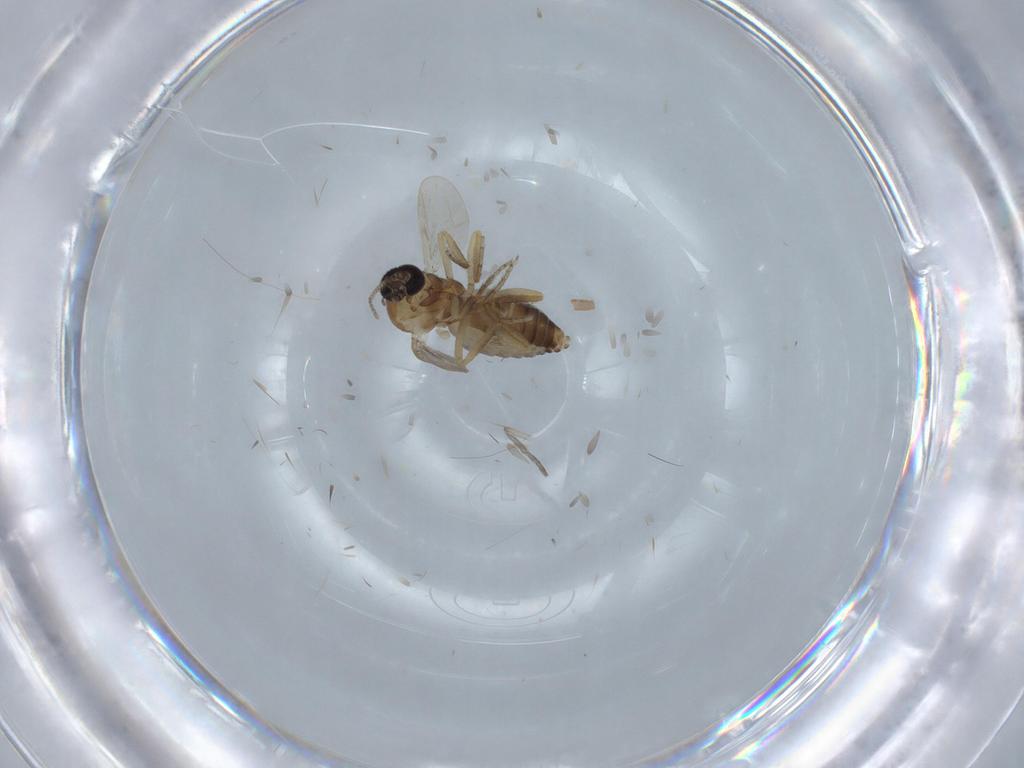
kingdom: Animalia
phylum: Arthropoda
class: Insecta
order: Diptera
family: Ceratopogonidae
